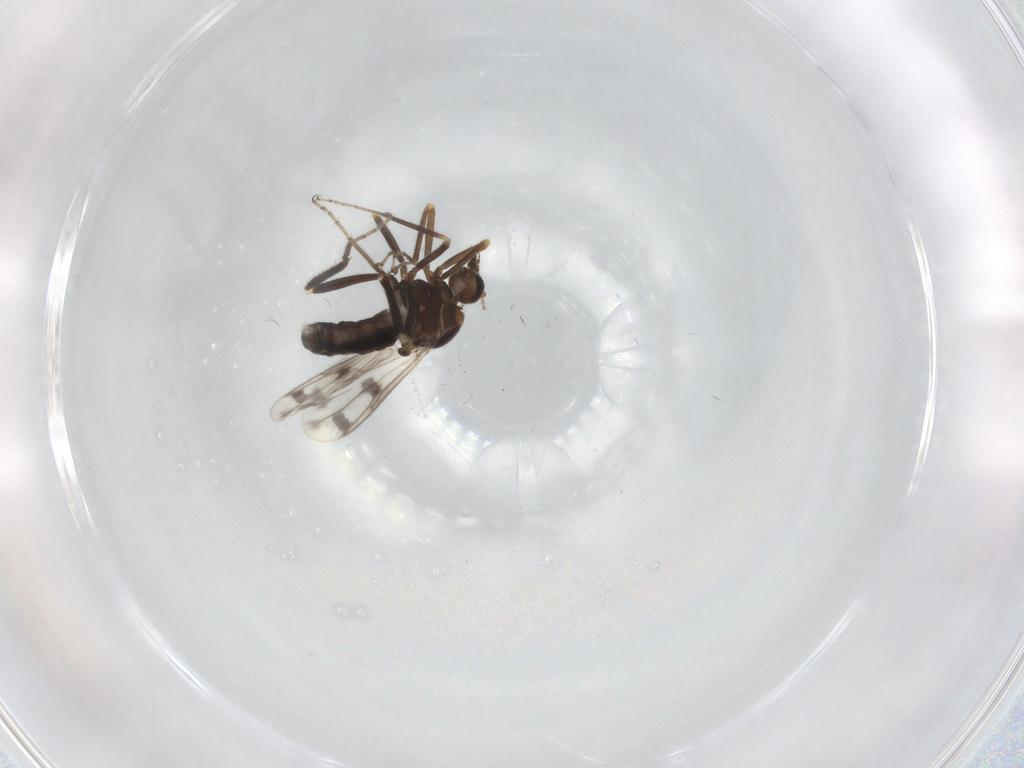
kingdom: Animalia
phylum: Arthropoda
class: Insecta
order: Diptera
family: Ceratopogonidae
